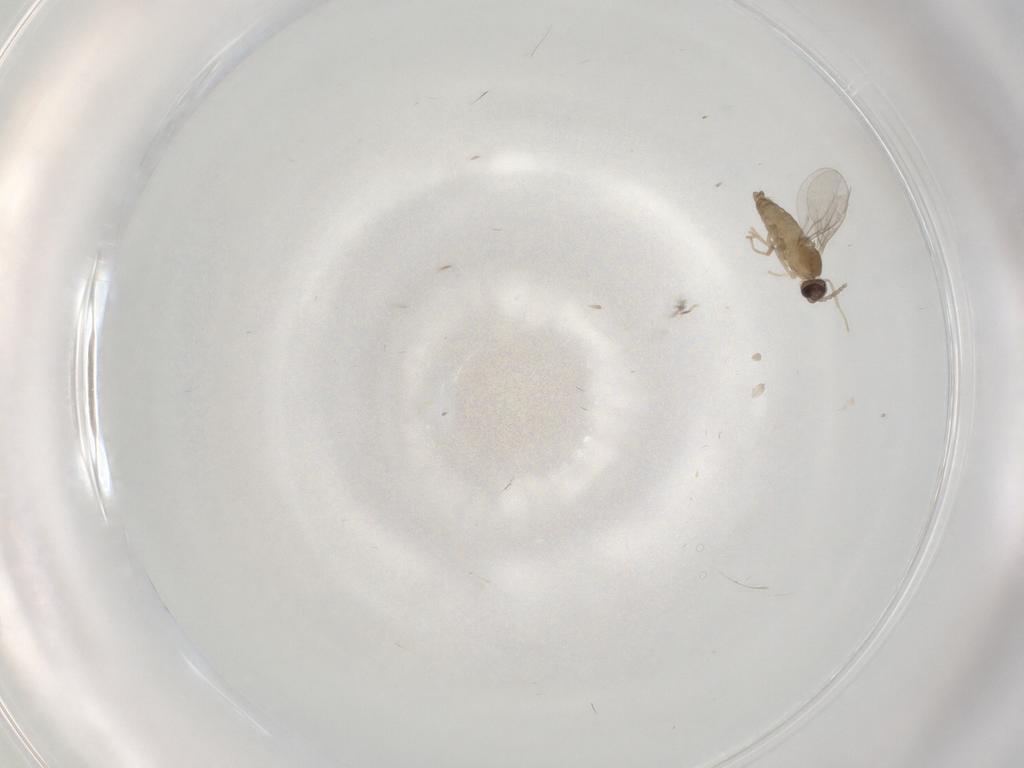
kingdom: Animalia
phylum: Arthropoda
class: Insecta
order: Diptera
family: Cecidomyiidae
